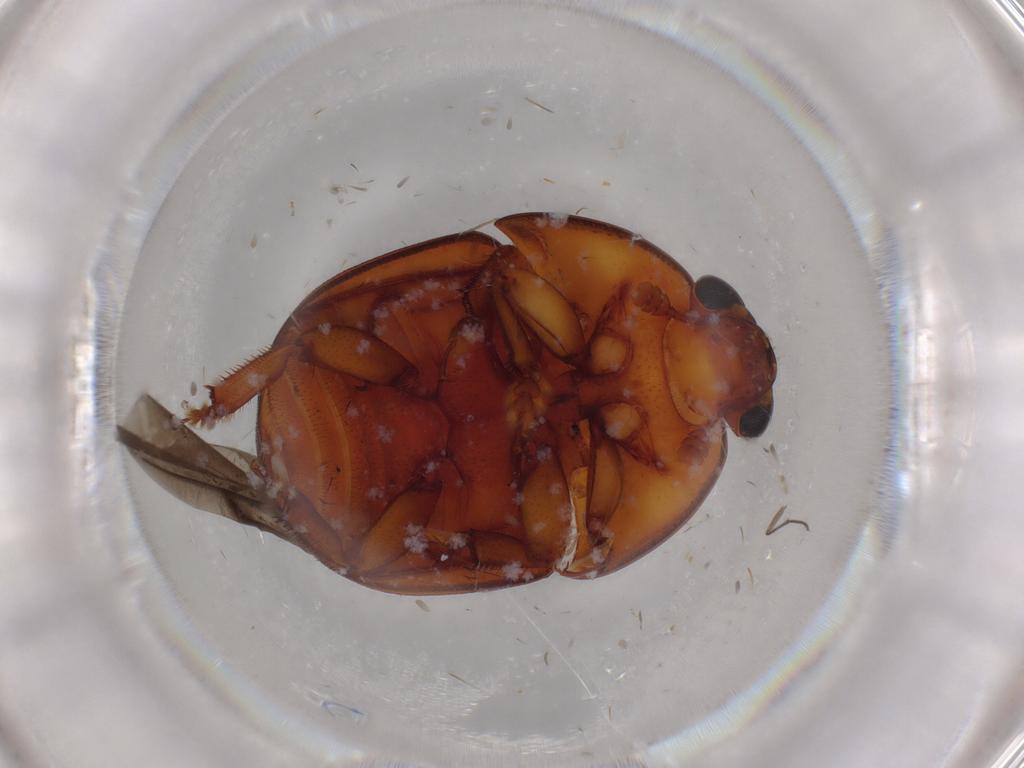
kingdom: Animalia
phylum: Arthropoda
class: Insecta
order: Coleoptera
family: Nitidulidae
